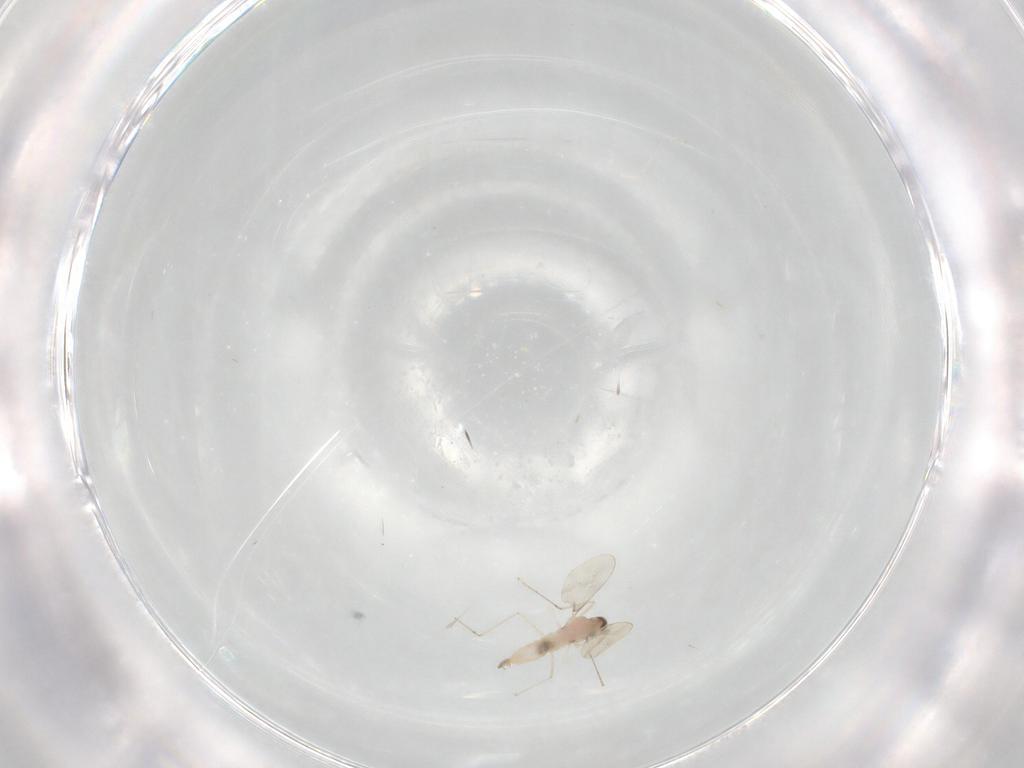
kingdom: Animalia
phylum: Arthropoda
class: Insecta
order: Diptera
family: Cecidomyiidae
